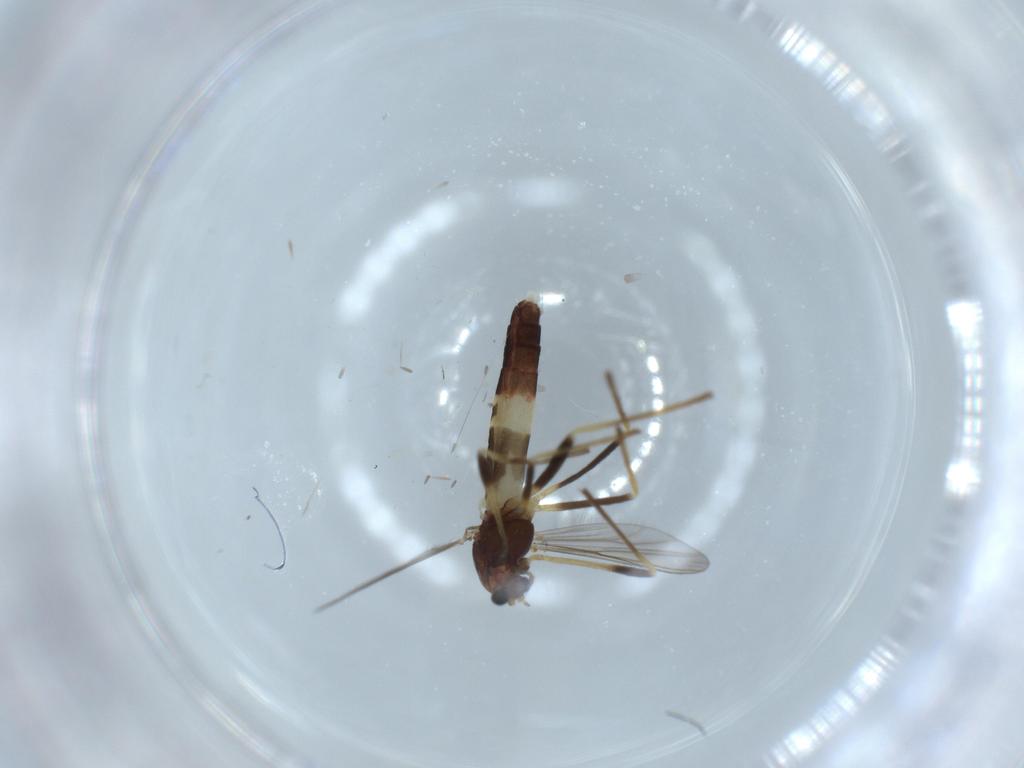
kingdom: Animalia
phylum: Arthropoda
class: Insecta
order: Diptera
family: Chironomidae
